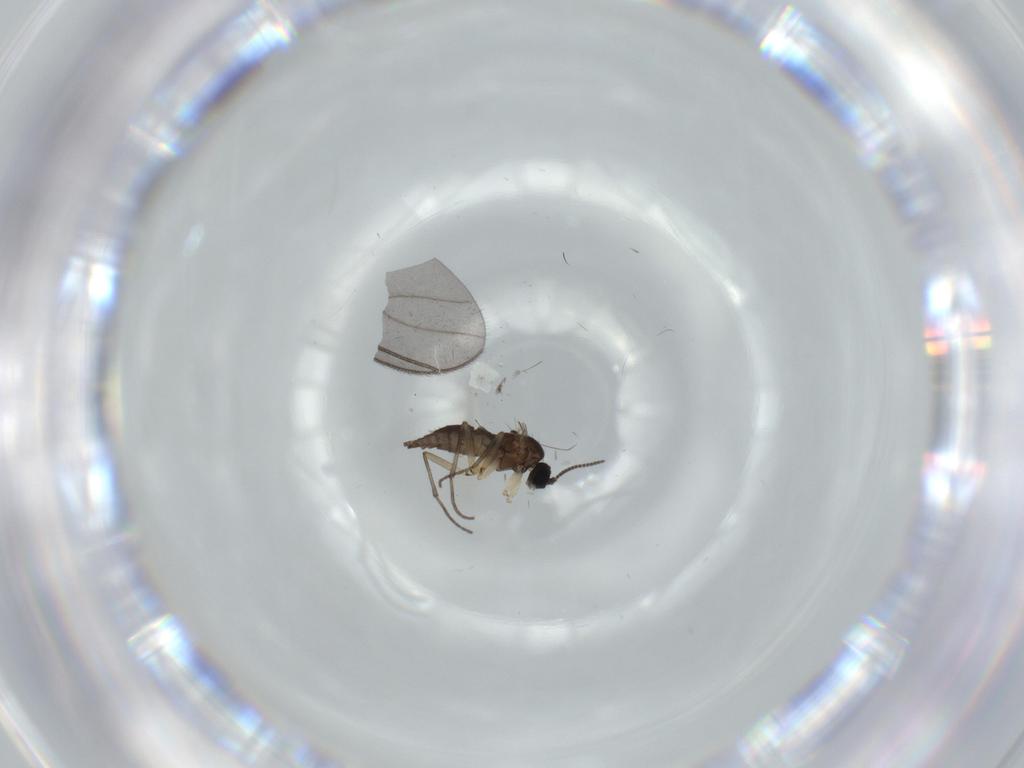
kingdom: Animalia
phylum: Arthropoda
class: Insecta
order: Diptera
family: Sciaridae
